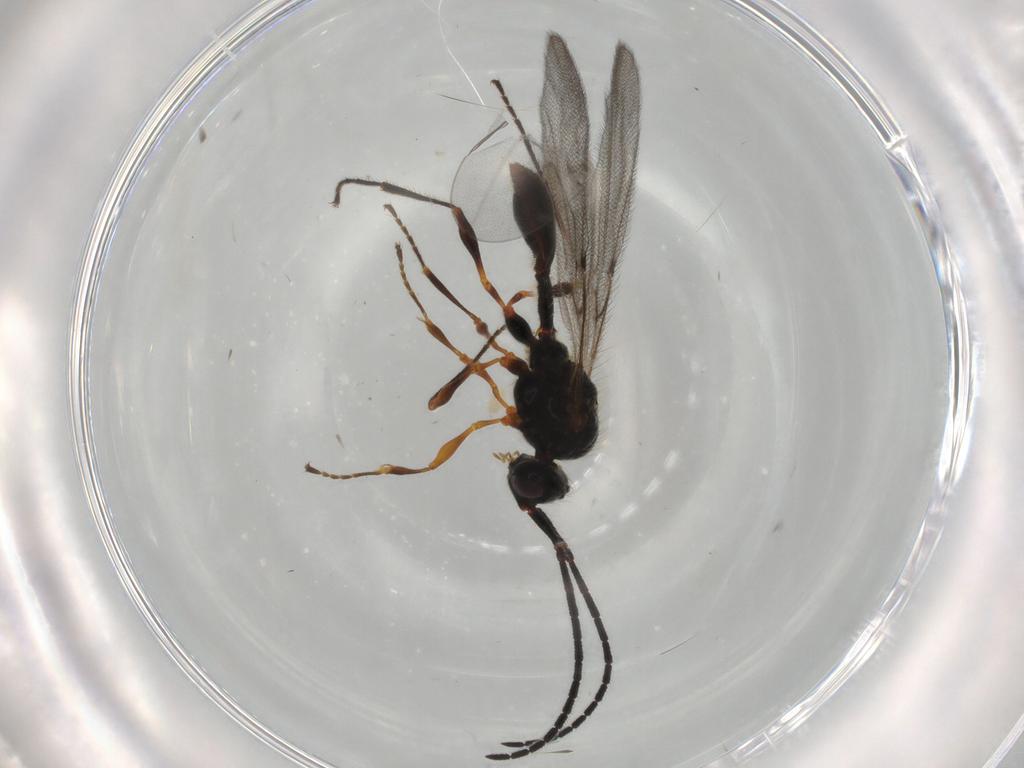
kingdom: Animalia
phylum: Arthropoda
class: Insecta
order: Hymenoptera
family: Diapriidae
